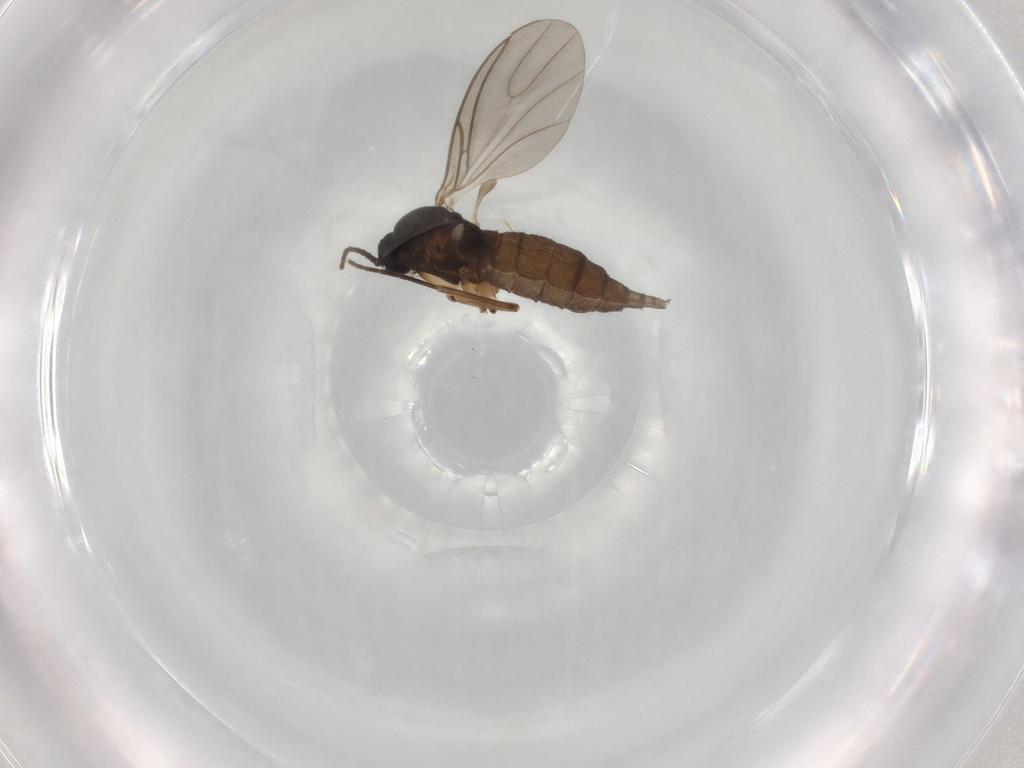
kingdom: Animalia
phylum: Arthropoda
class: Insecta
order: Diptera
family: Sciaridae
